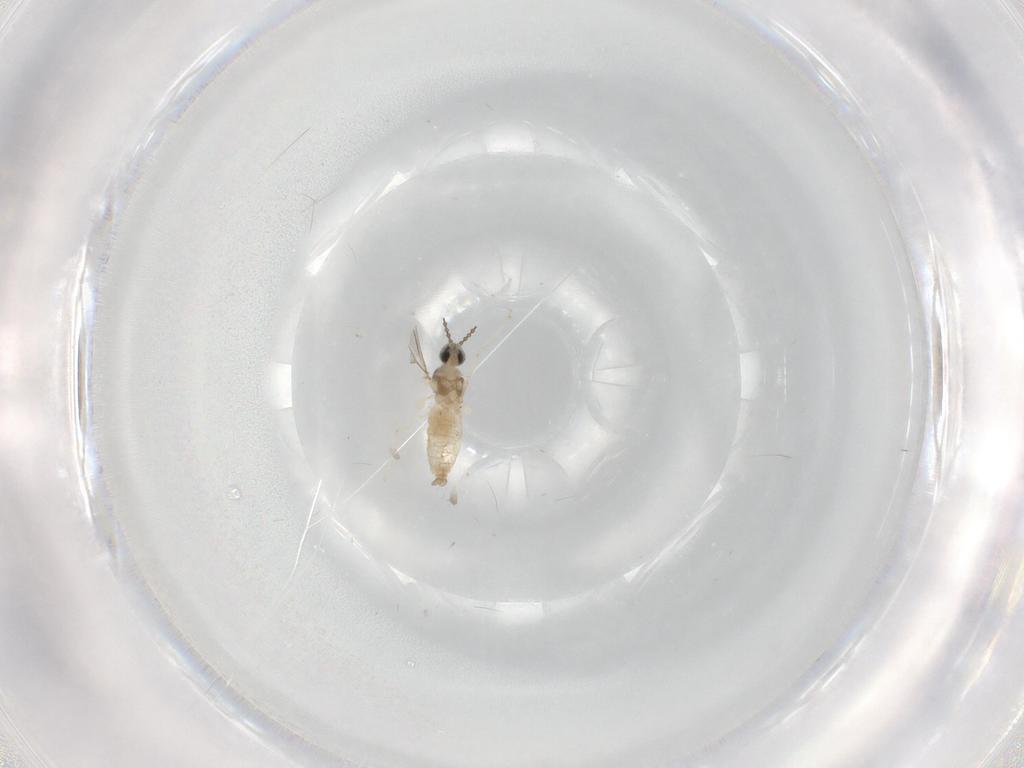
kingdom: Animalia
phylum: Arthropoda
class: Insecta
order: Diptera
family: Cecidomyiidae
